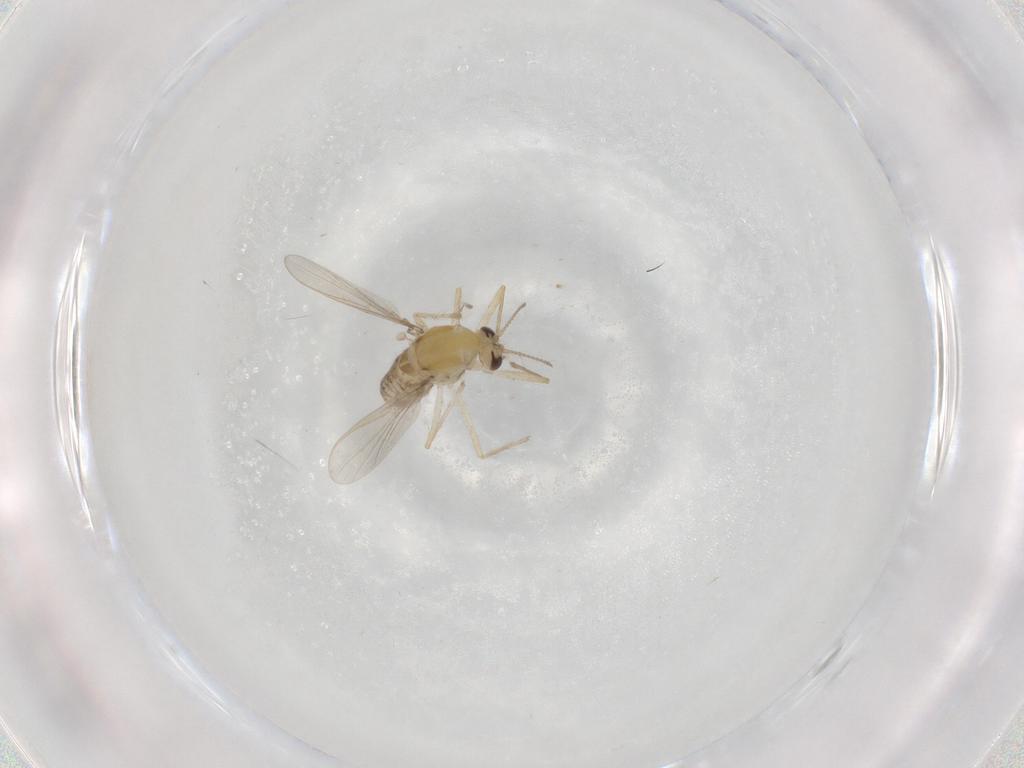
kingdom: Animalia
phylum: Arthropoda
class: Insecta
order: Diptera
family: Chironomidae
